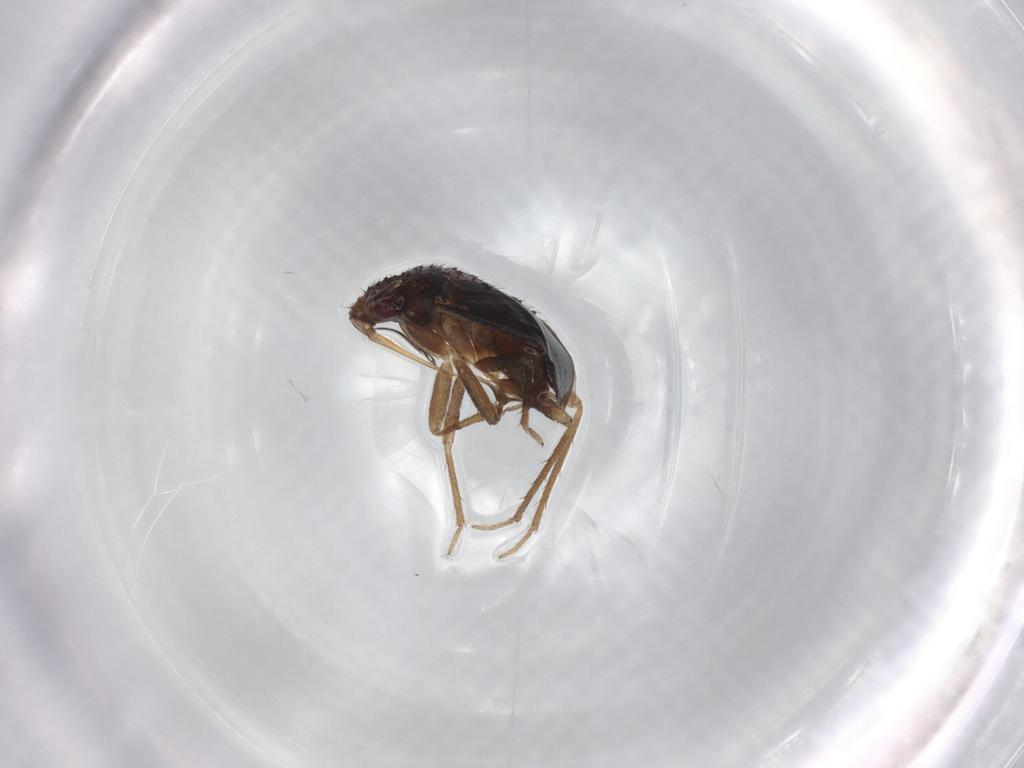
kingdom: Animalia
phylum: Arthropoda
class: Insecta
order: Hemiptera
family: Ceratocombidae
